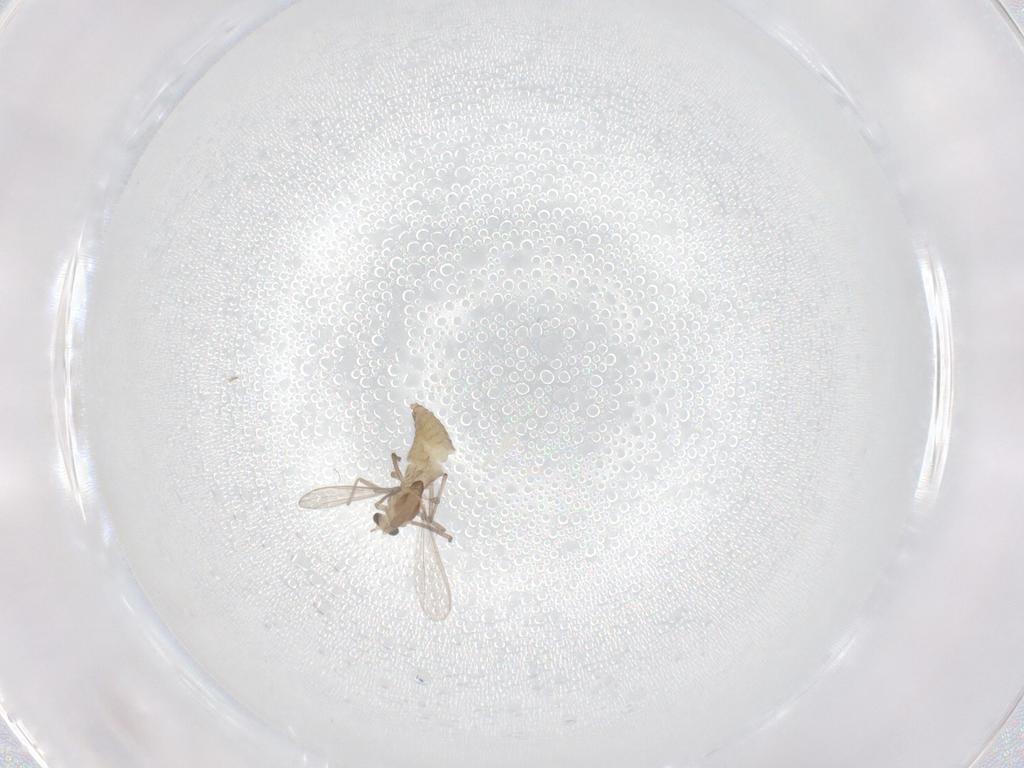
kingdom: Animalia
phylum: Arthropoda
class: Insecta
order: Diptera
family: Chironomidae
